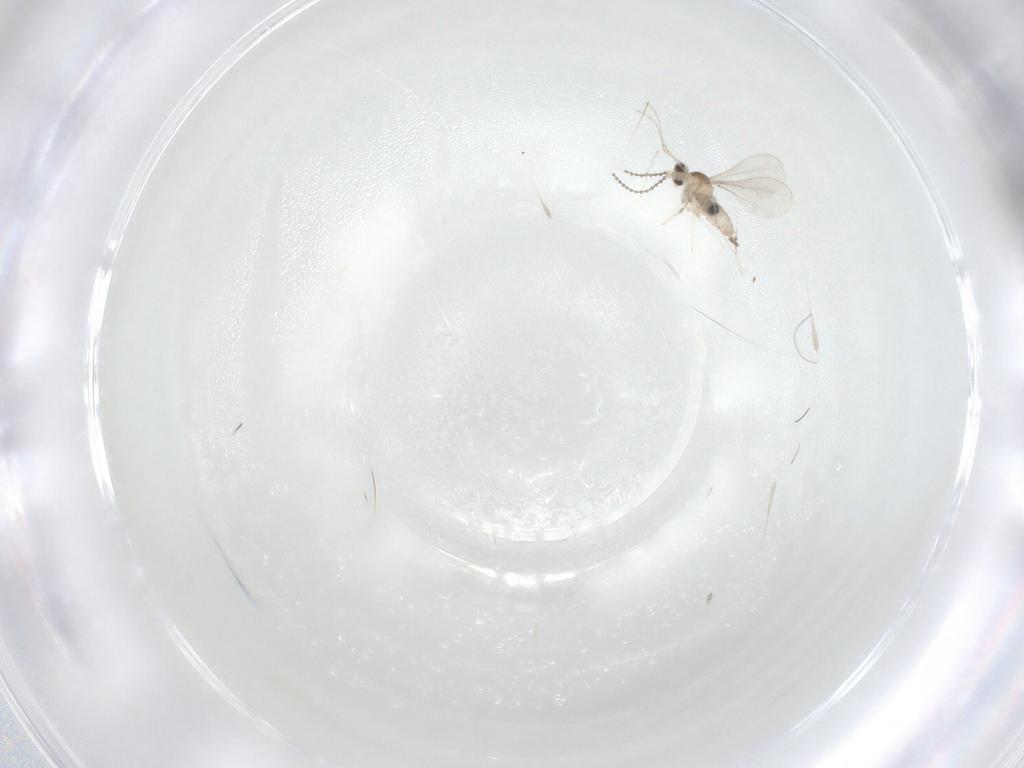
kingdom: Animalia
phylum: Arthropoda
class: Insecta
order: Diptera
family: Cecidomyiidae
